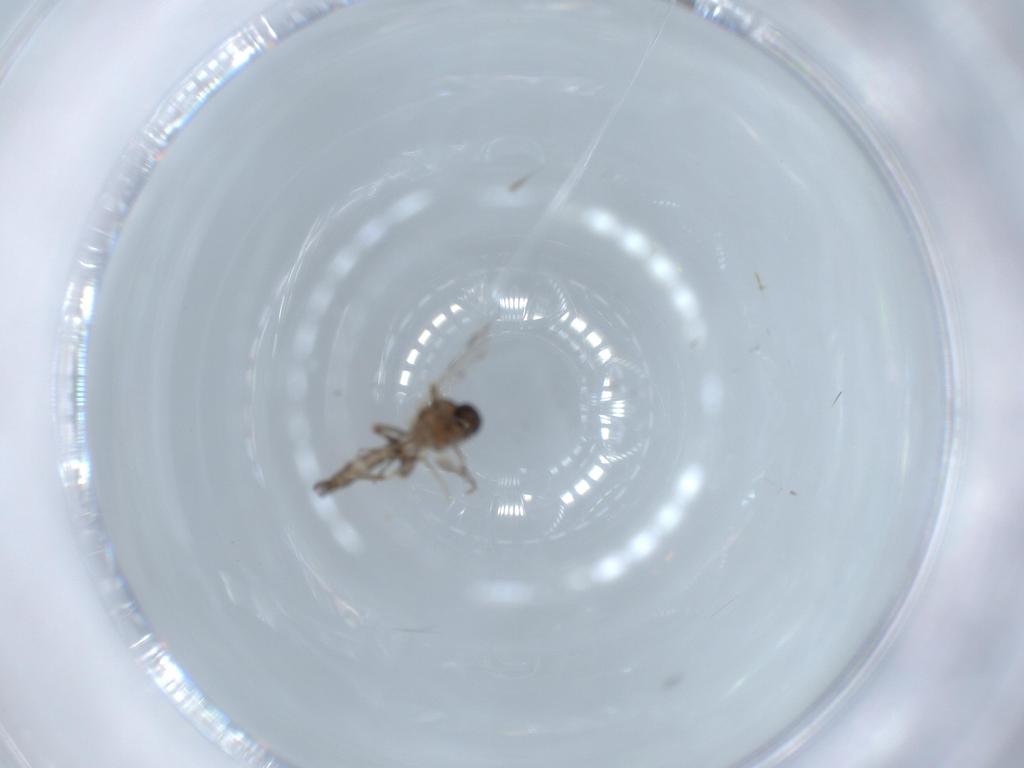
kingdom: Animalia
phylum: Arthropoda
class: Insecta
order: Diptera
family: Ceratopogonidae
